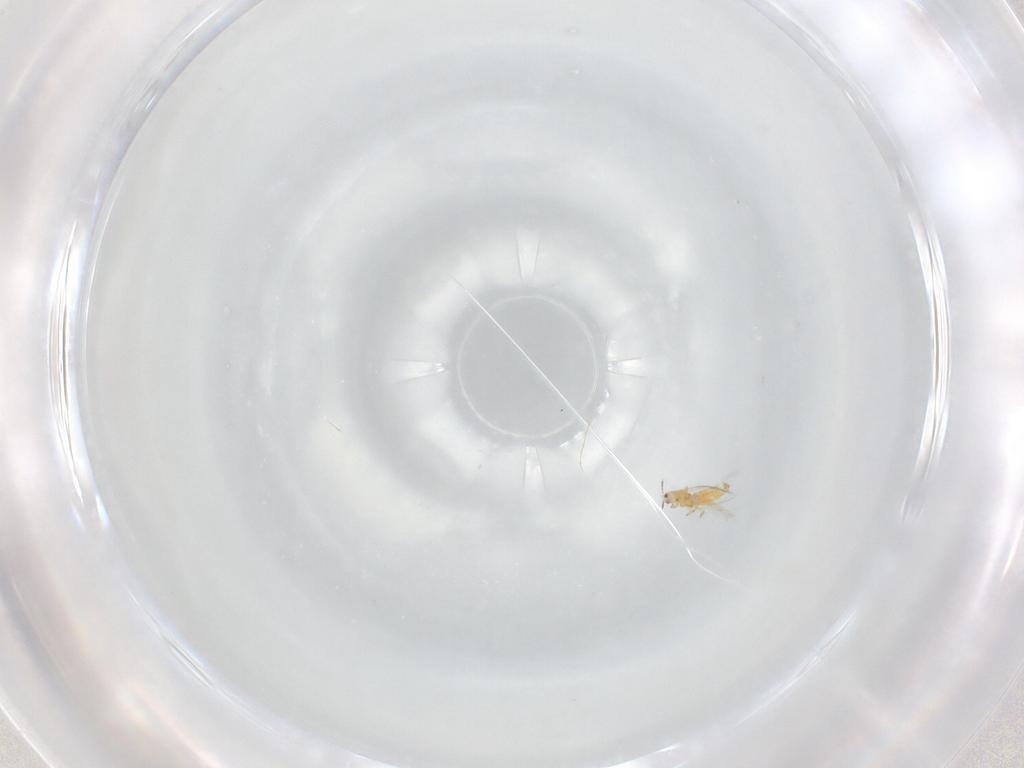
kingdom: Animalia
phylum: Arthropoda
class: Insecta
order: Thysanoptera
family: Thripidae
